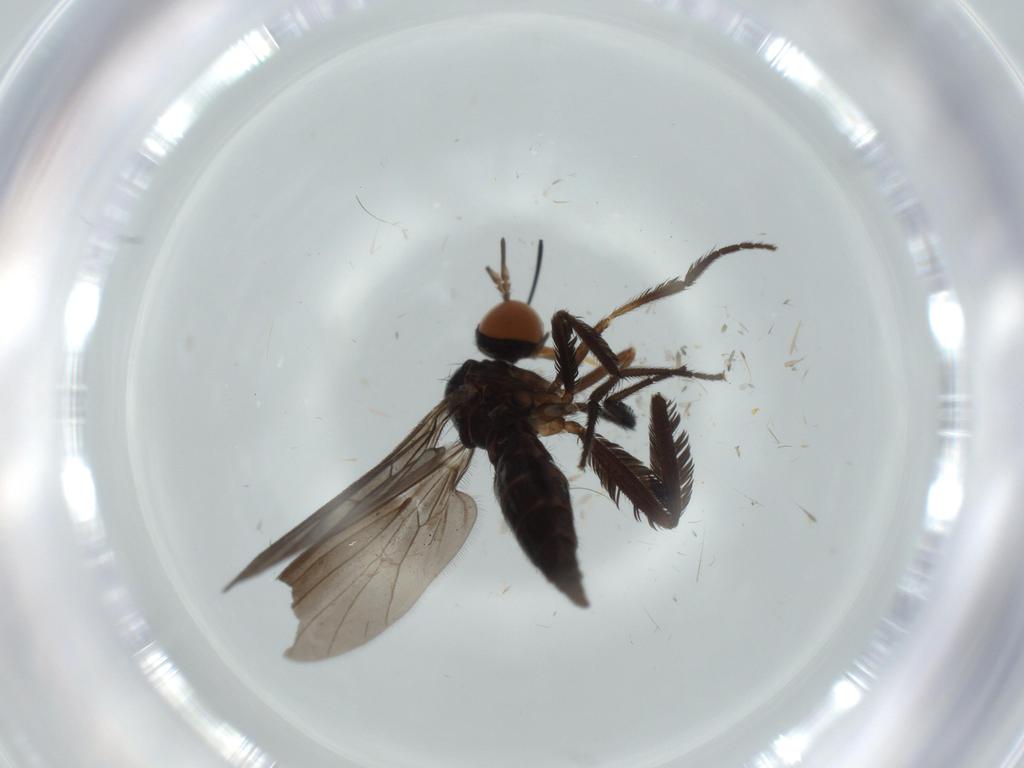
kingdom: Animalia
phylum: Arthropoda
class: Insecta
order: Diptera
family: Empididae
